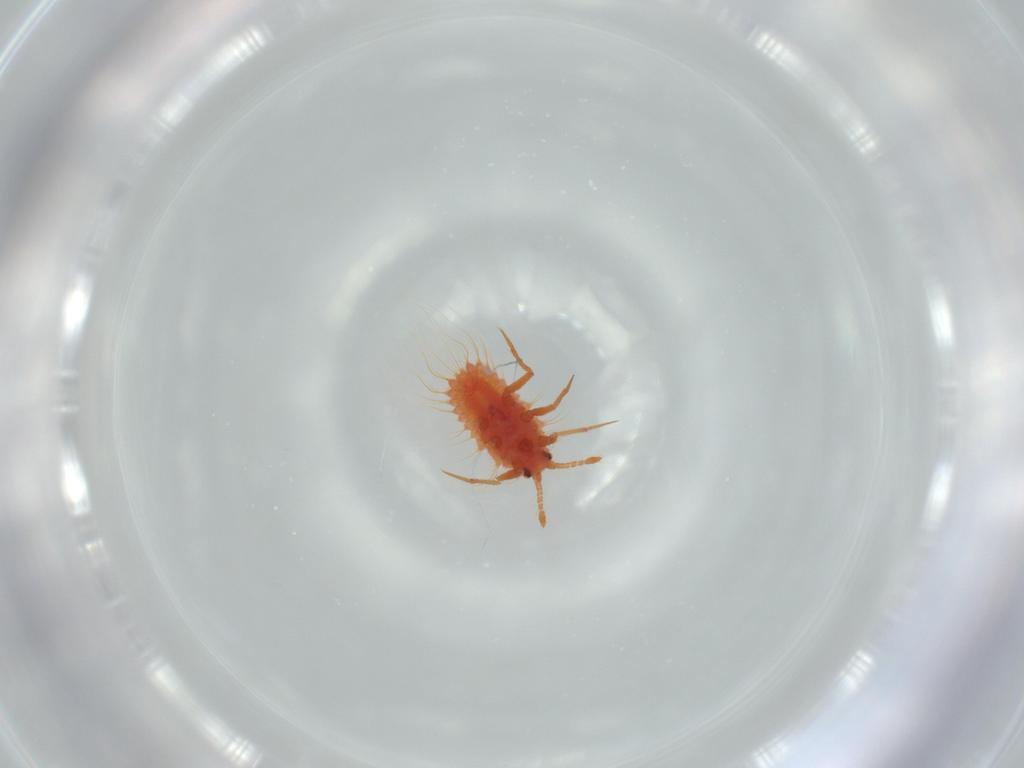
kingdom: Animalia
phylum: Arthropoda
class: Insecta
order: Hemiptera
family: Monophlebidae
